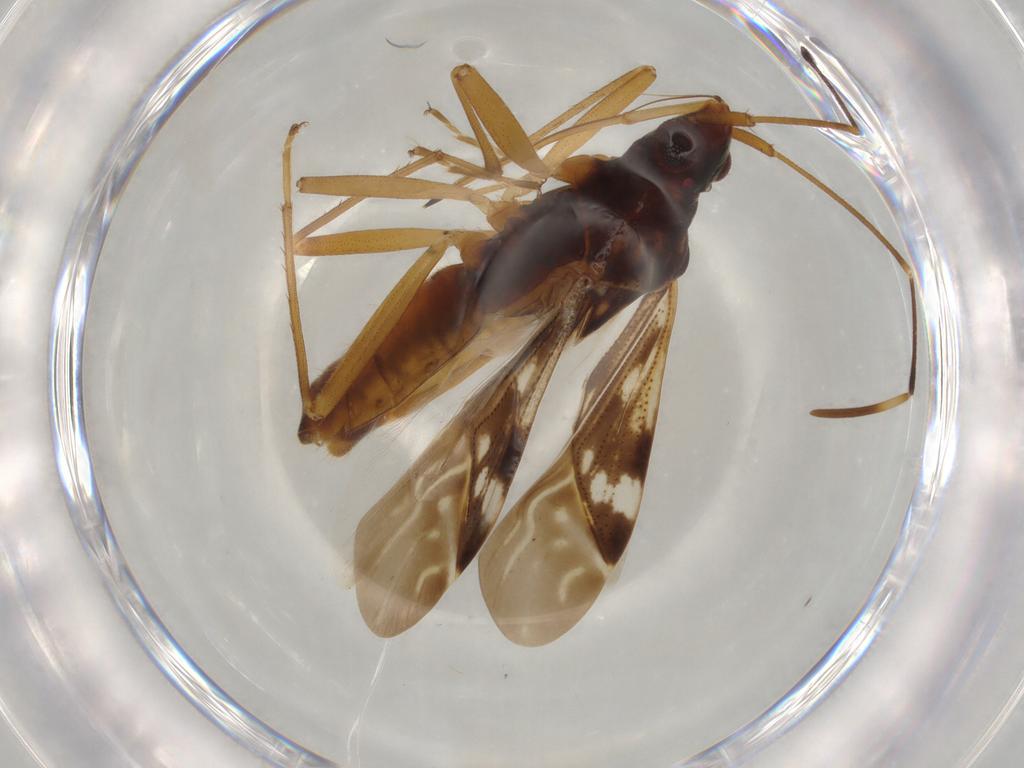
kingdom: Animalia
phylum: Arthropoda
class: Insecta
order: Hemiptera
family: Rhyparochromidae
